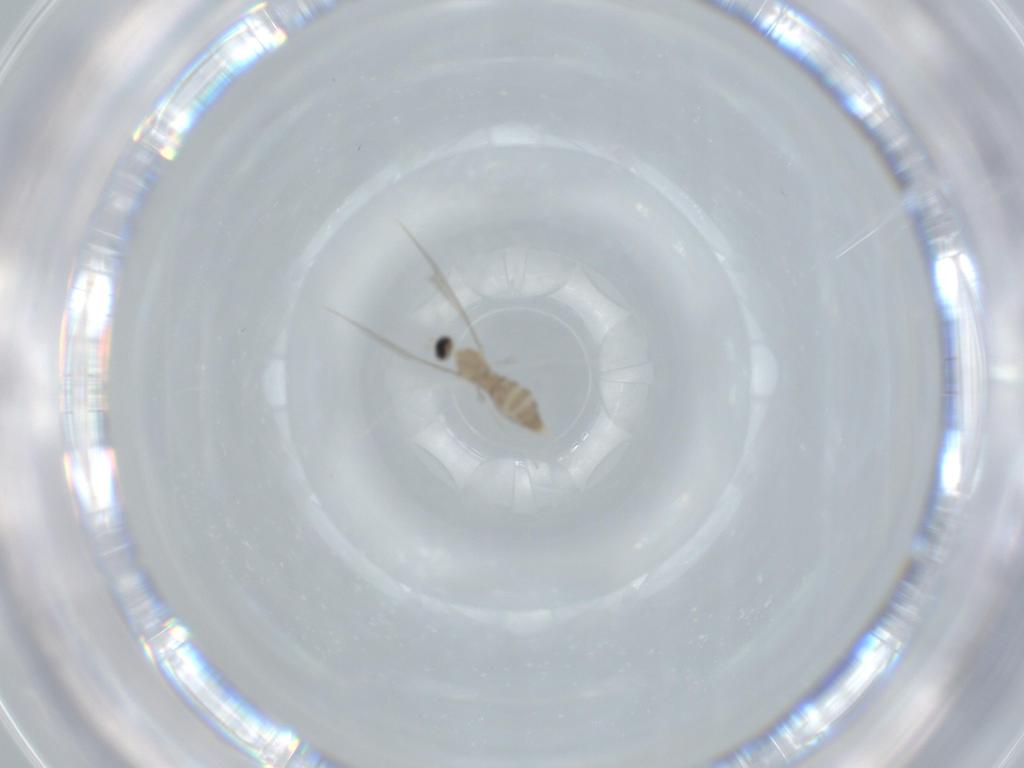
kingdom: Animalia
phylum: Arthropoda
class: Insecta
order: Diptera
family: Cecidomyiidae
